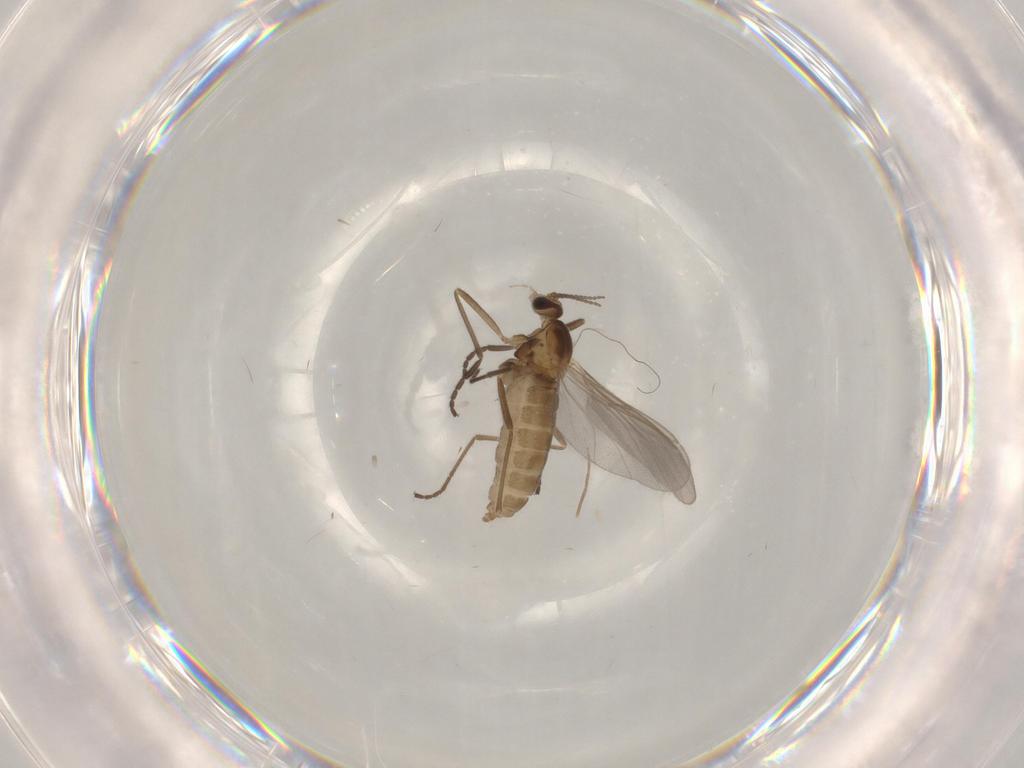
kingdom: Animalia
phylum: Arthropoda
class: Insecta
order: Diptera
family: Cecidomyiidae
